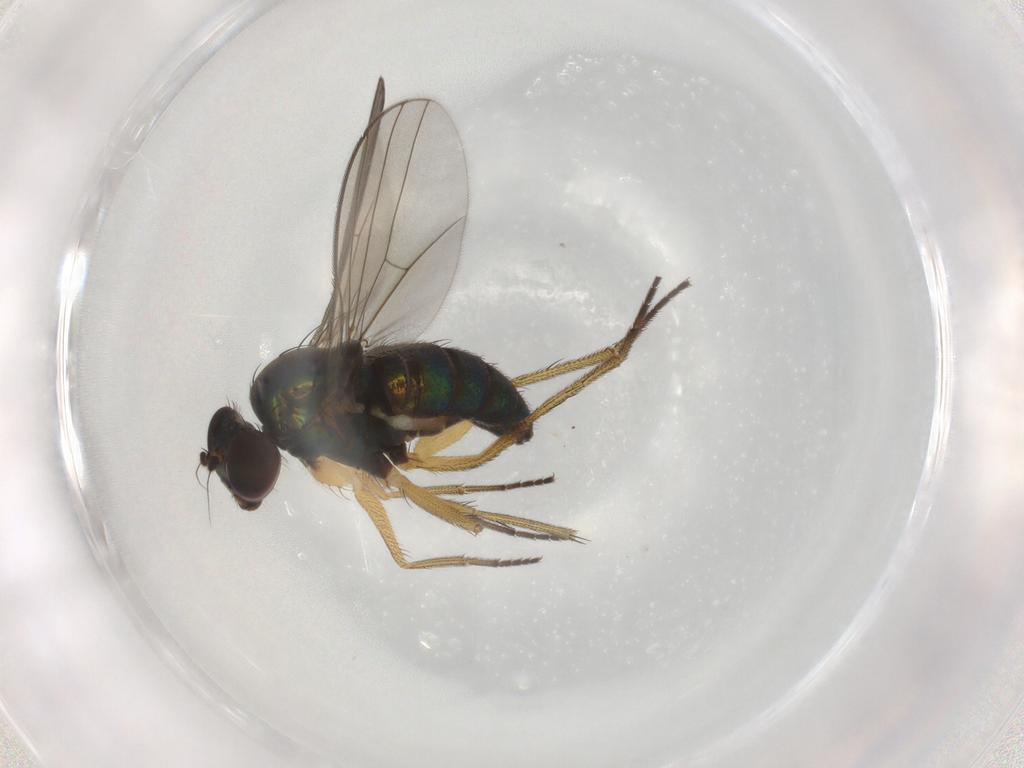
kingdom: Animalia
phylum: Arthropoda
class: Insecta
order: Diptera
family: Dolichopodidae
